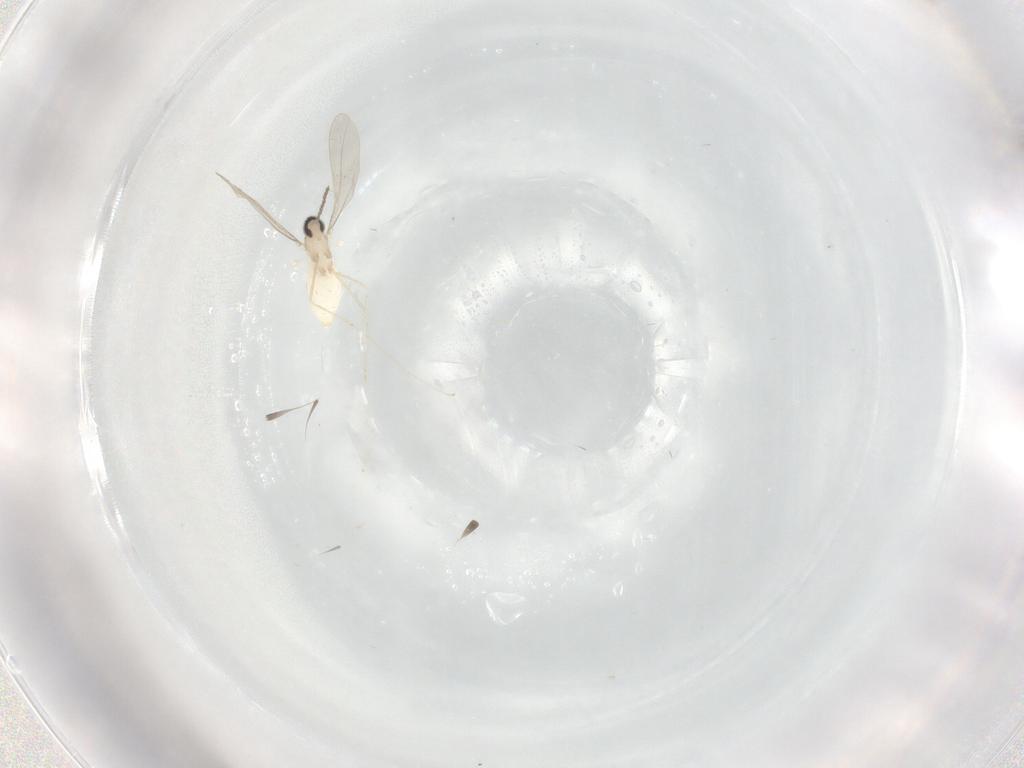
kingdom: Animalia
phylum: Arthropoda
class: Insecta
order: Diptera
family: Cecidomyiidae
